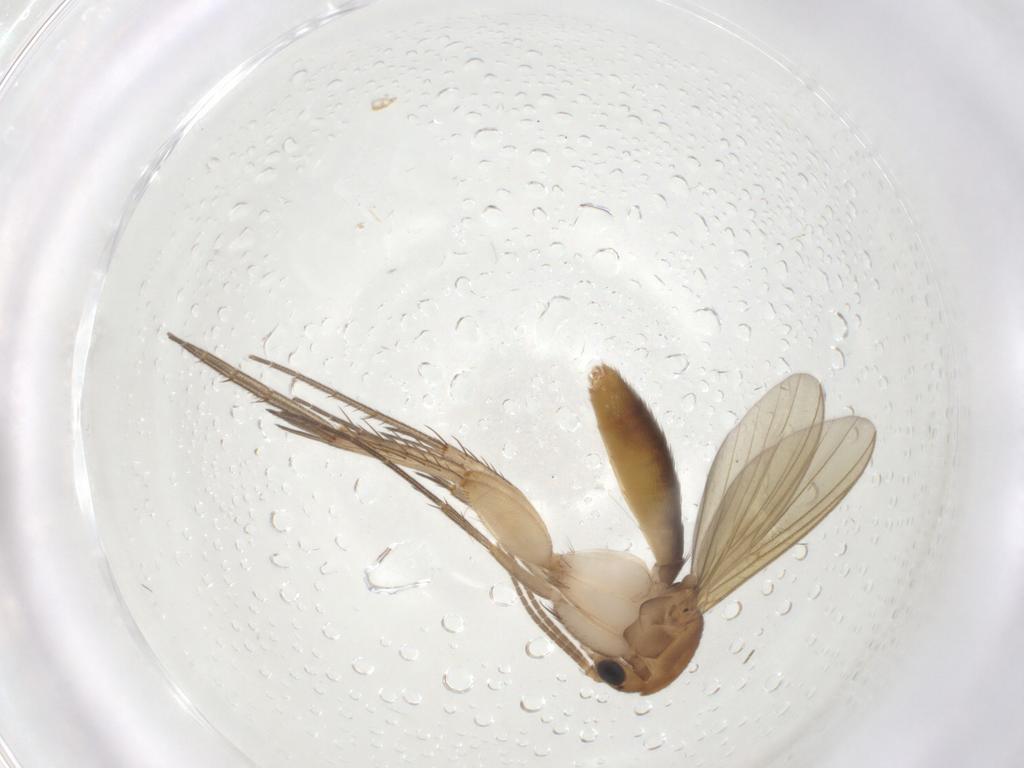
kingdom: Animalia
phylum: Arthropoda
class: Insecta
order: Diptera
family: Mycetophilidae
